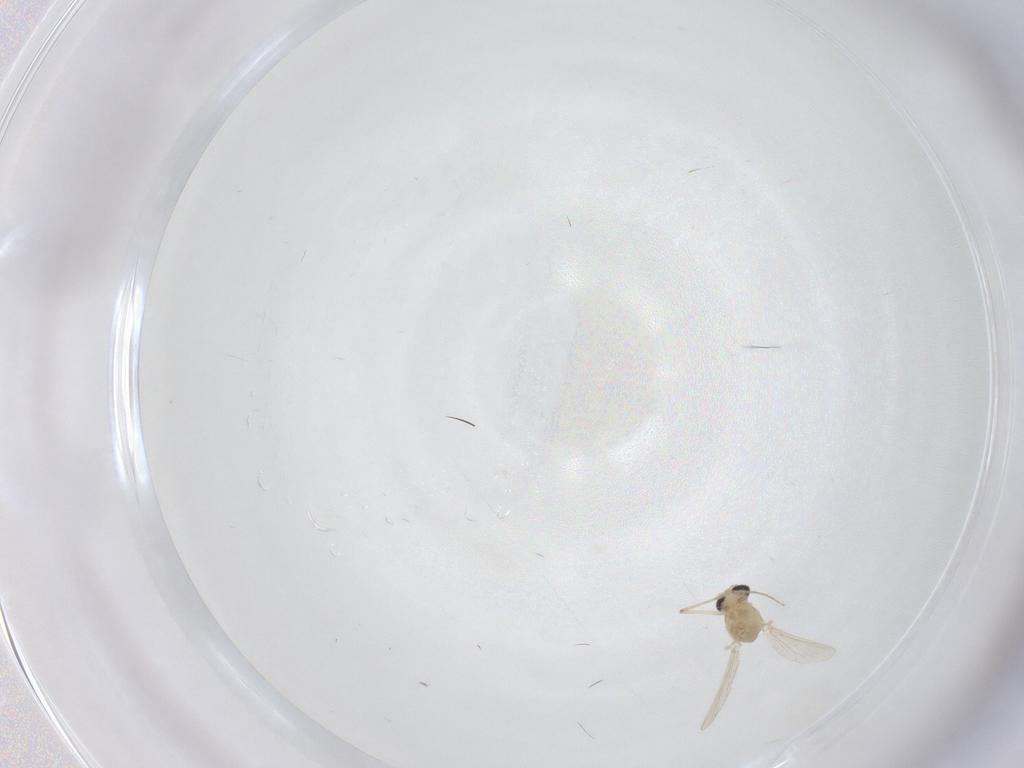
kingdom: Animalia
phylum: Arthropoda
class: Insecta
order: Diptera
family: Chironomidae
